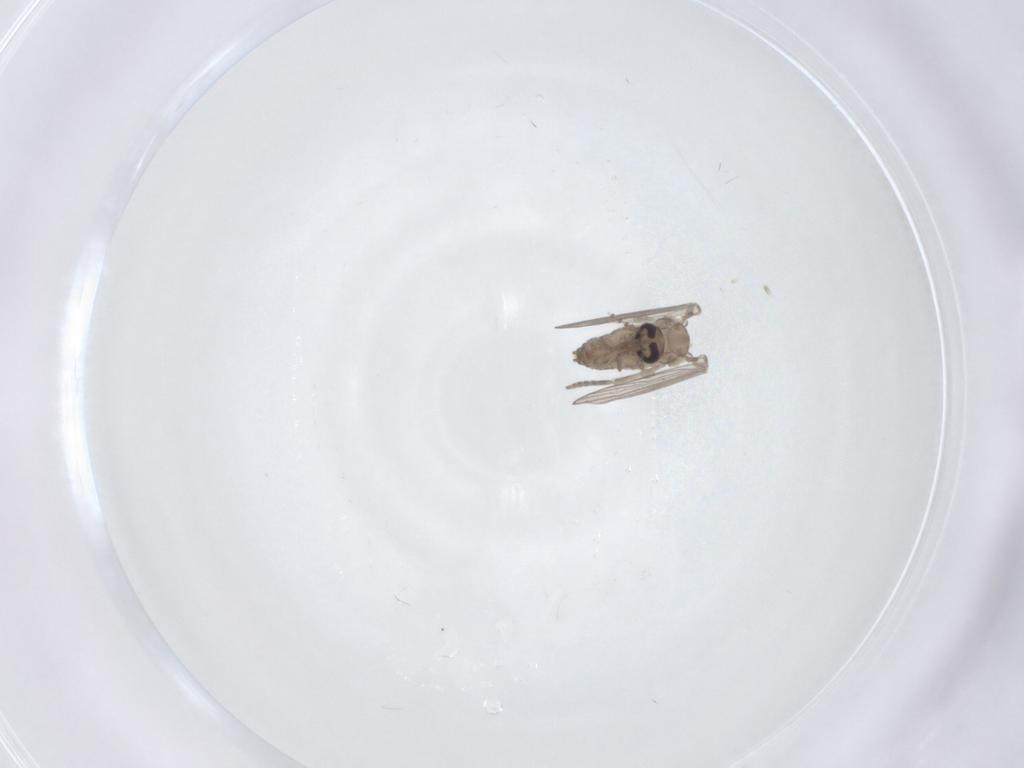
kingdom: Animalia
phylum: Arthropoda
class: Insecta
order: Diptera
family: Psychodidae
